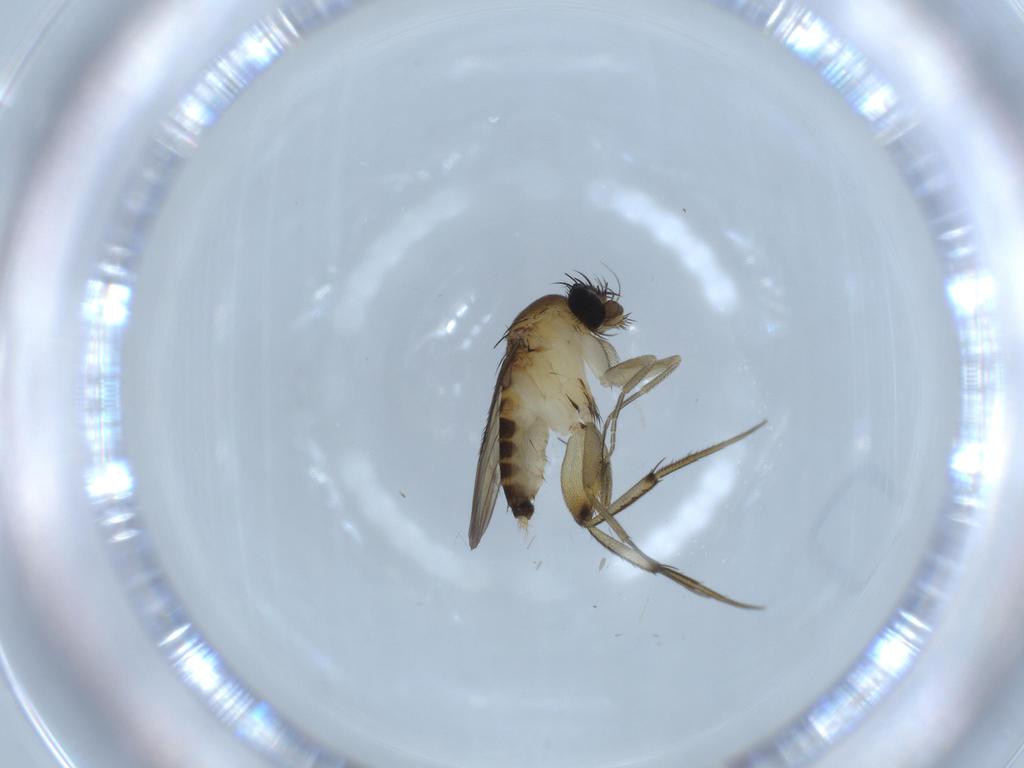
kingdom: Animalia
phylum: Arthropoda
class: Insecta
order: Diptera
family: Phoridae
